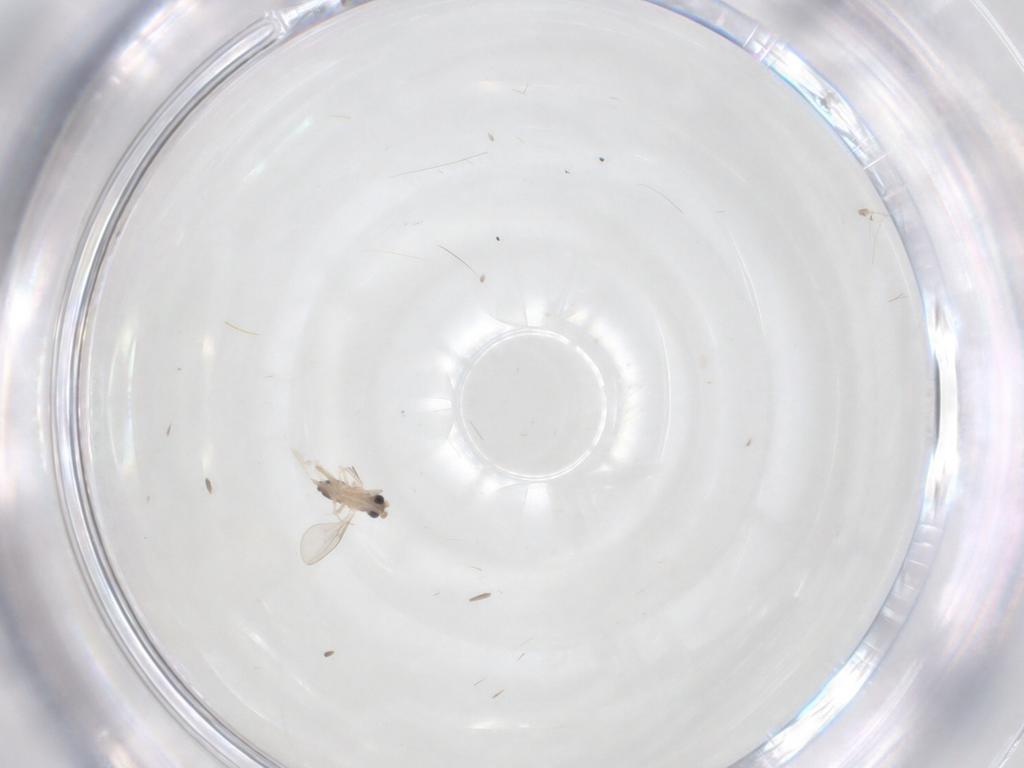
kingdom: Animalia
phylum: Arthropoda
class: Insecta
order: Diptera
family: Cecidomyiidae
